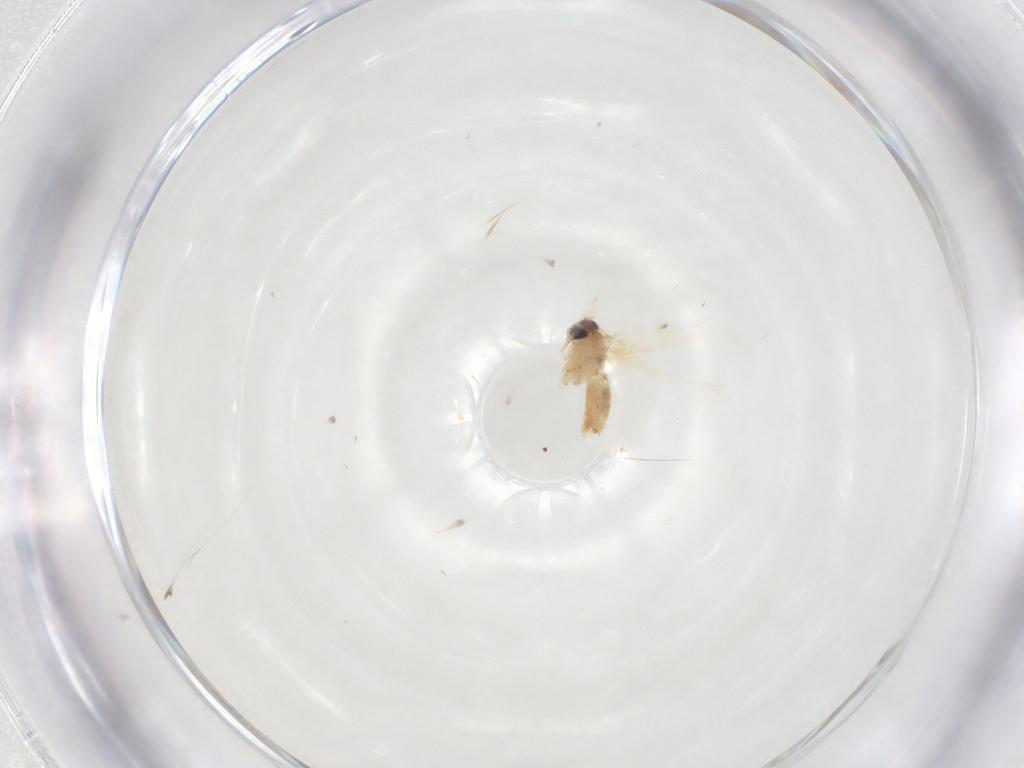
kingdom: Animalia
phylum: Arthropoda
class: Insecta
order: Lepidoptera
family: Crambidae
